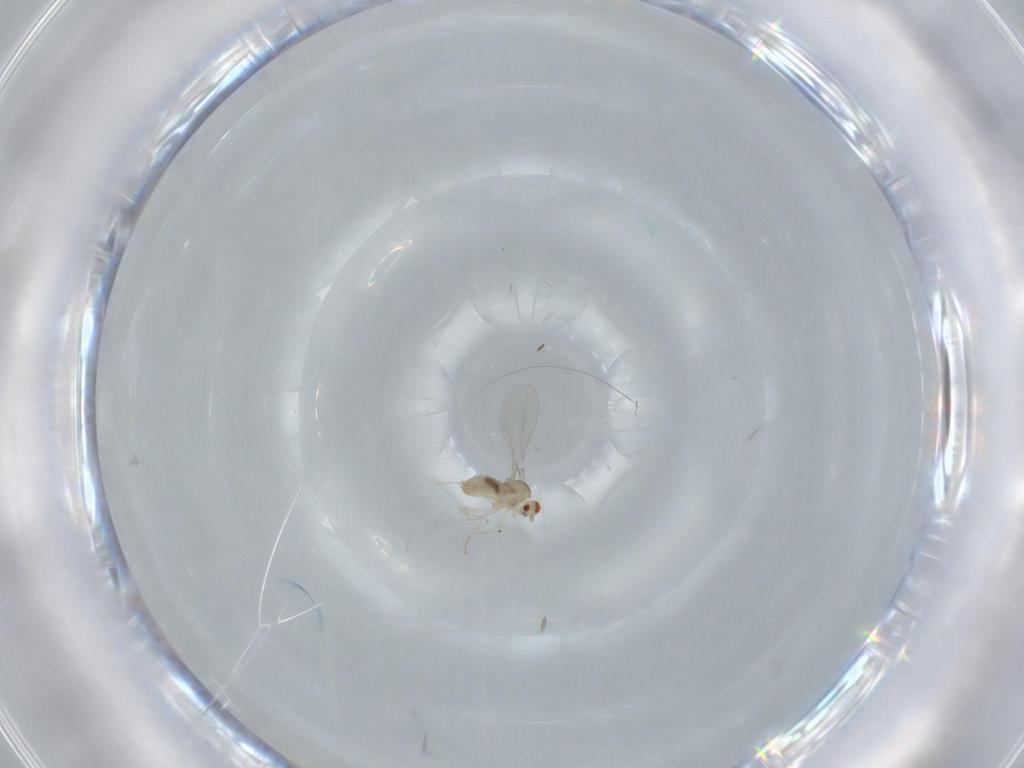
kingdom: Animalia
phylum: Arthropoda
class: Insecta
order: Diptera
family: Cecidomyiidae
